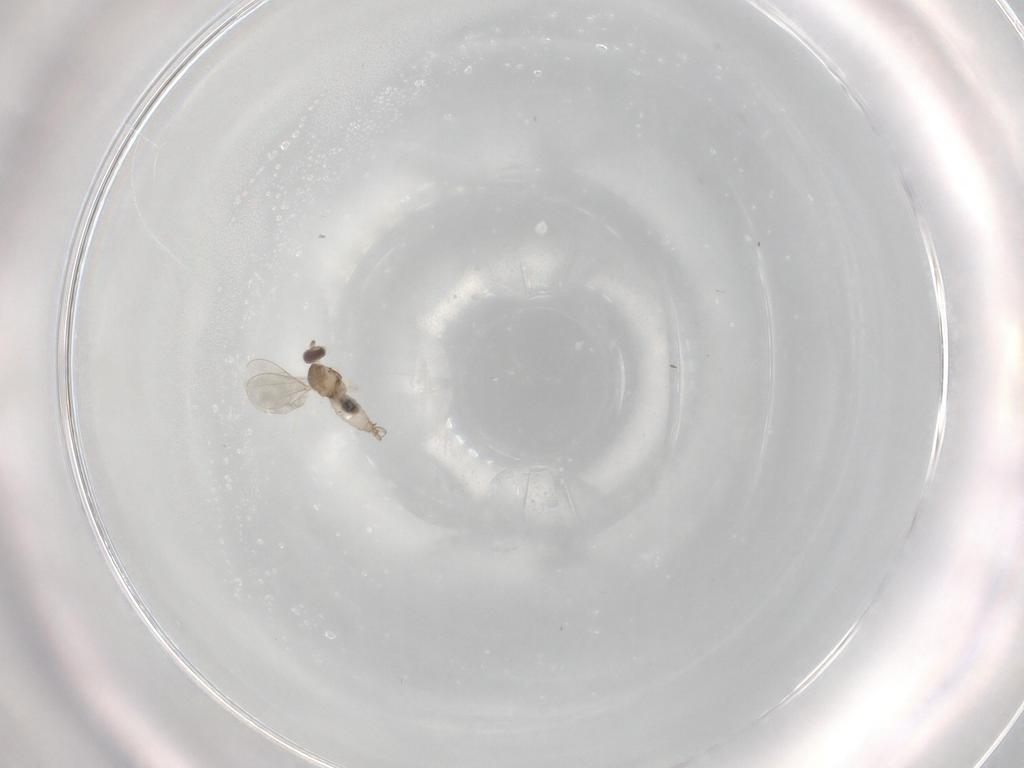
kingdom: Animalia
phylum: Arthropoda
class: Insecta
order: Diptera
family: Cecidomyiidae
